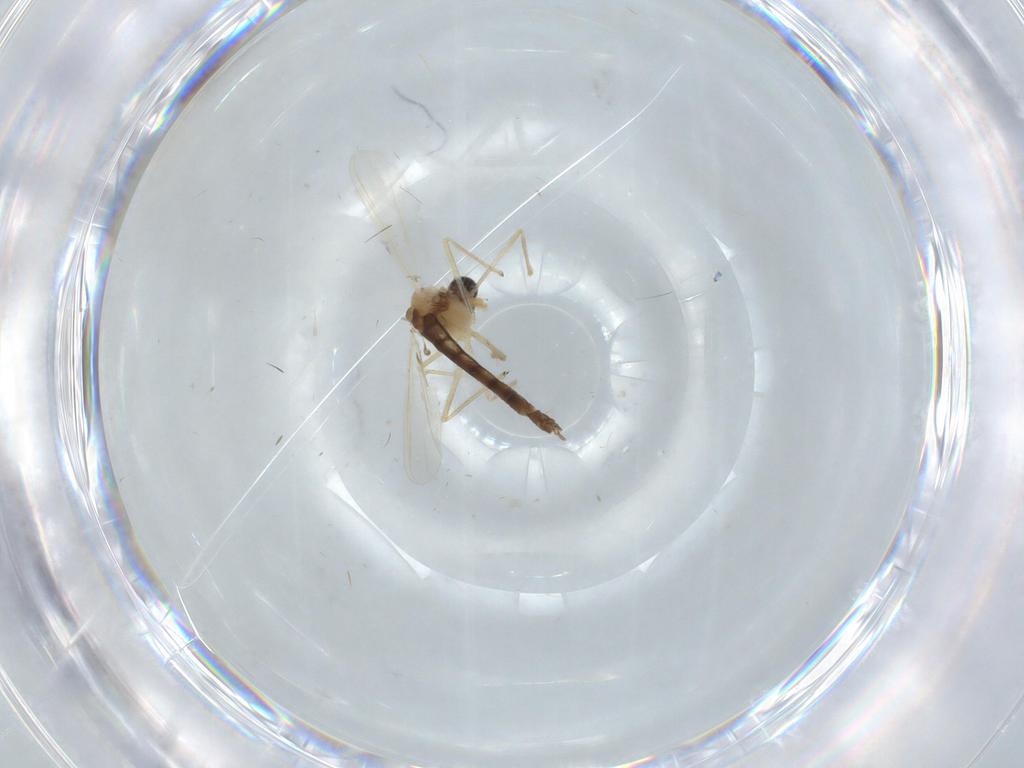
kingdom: Animalia
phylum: Arthropoda
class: Insecta
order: Diptera
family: Chironomidae
